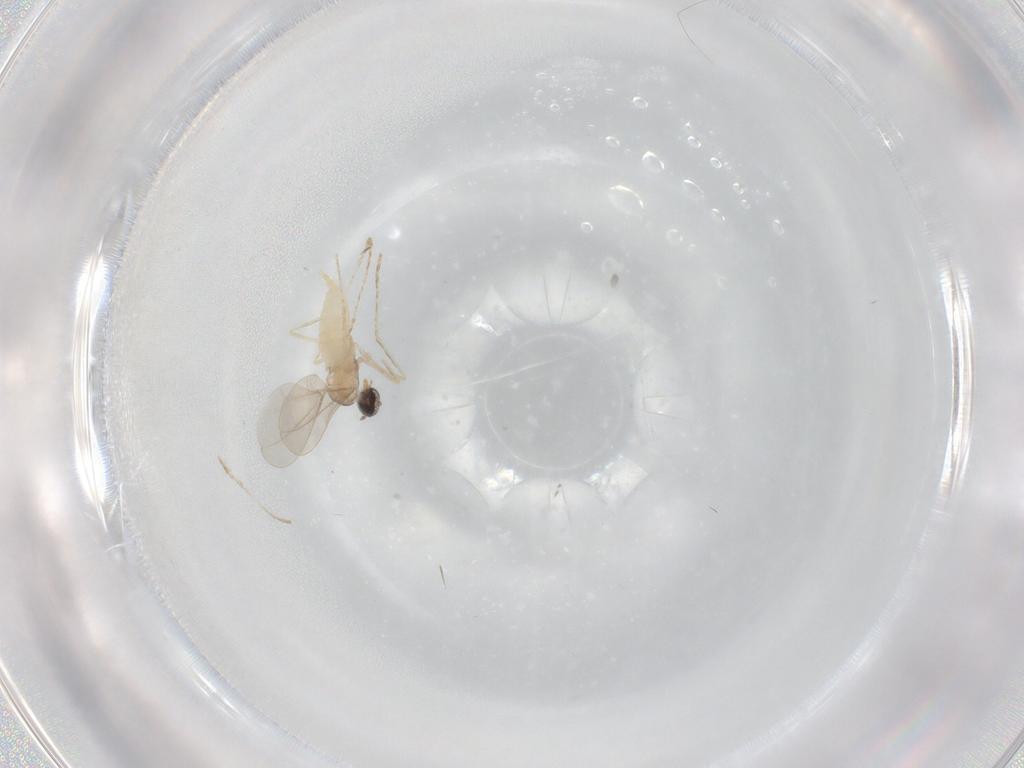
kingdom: Animalia
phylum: Arthropoda
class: Insecta
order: Diptera
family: Cecidomyiidae
